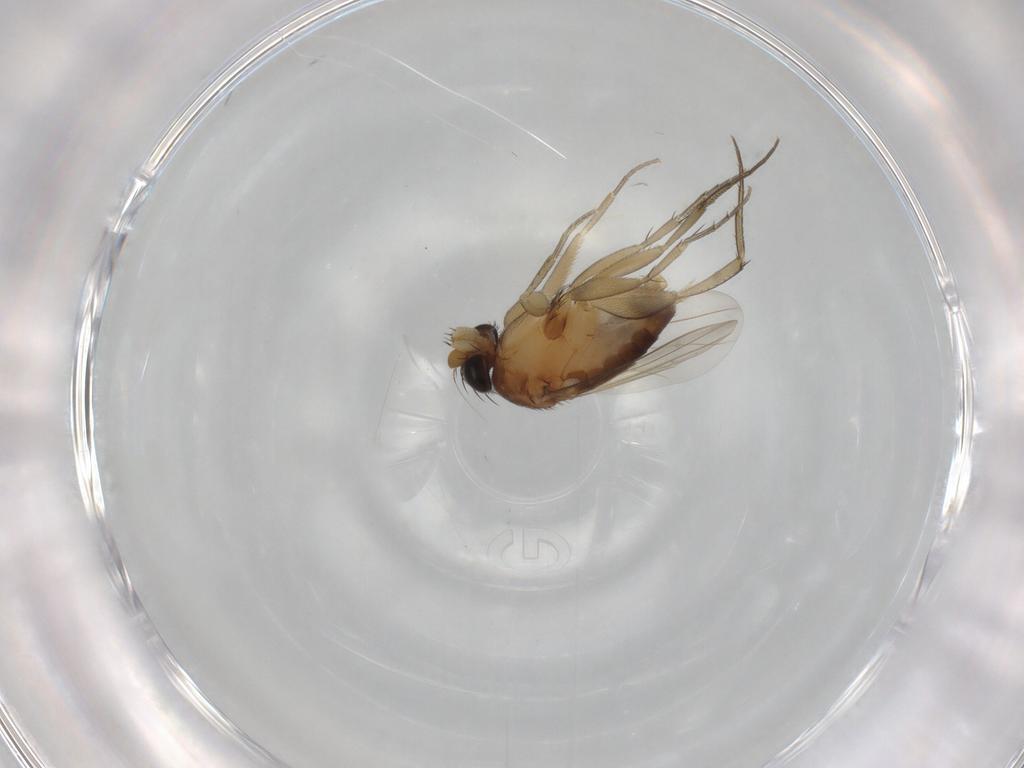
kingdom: Animalia
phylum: Arthropoda
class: Insecta
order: Diptera
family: Phoridae
